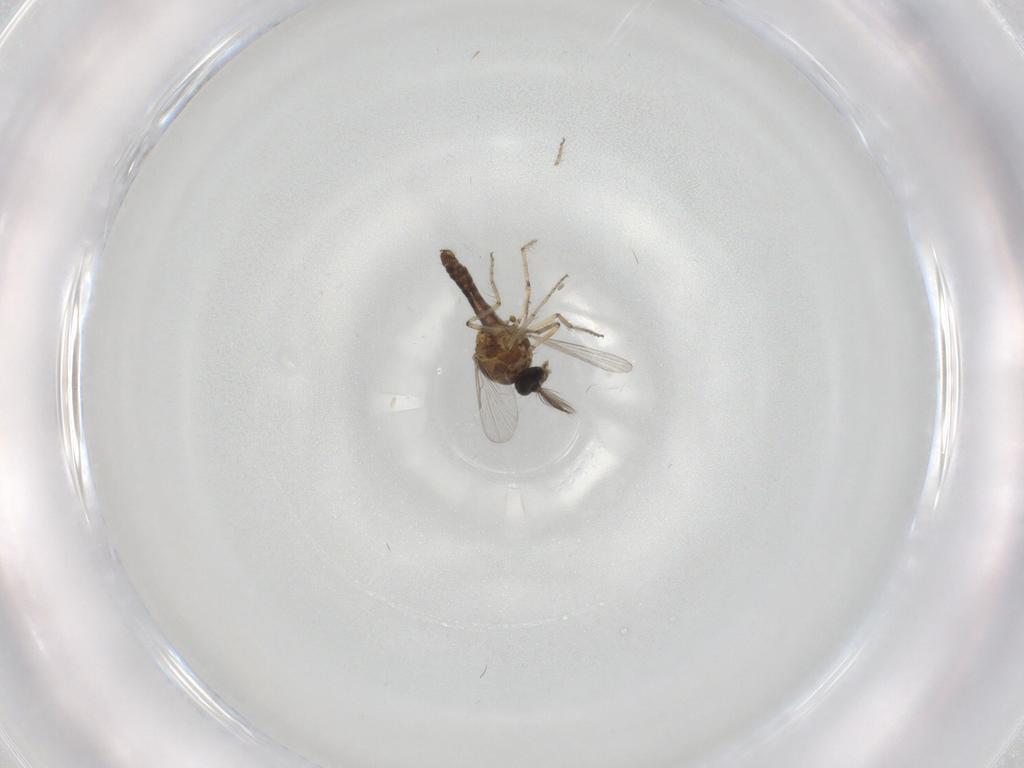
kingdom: Animalia
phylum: Arthropoda
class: Insecta
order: Diptera
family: Ceratopogonidae
